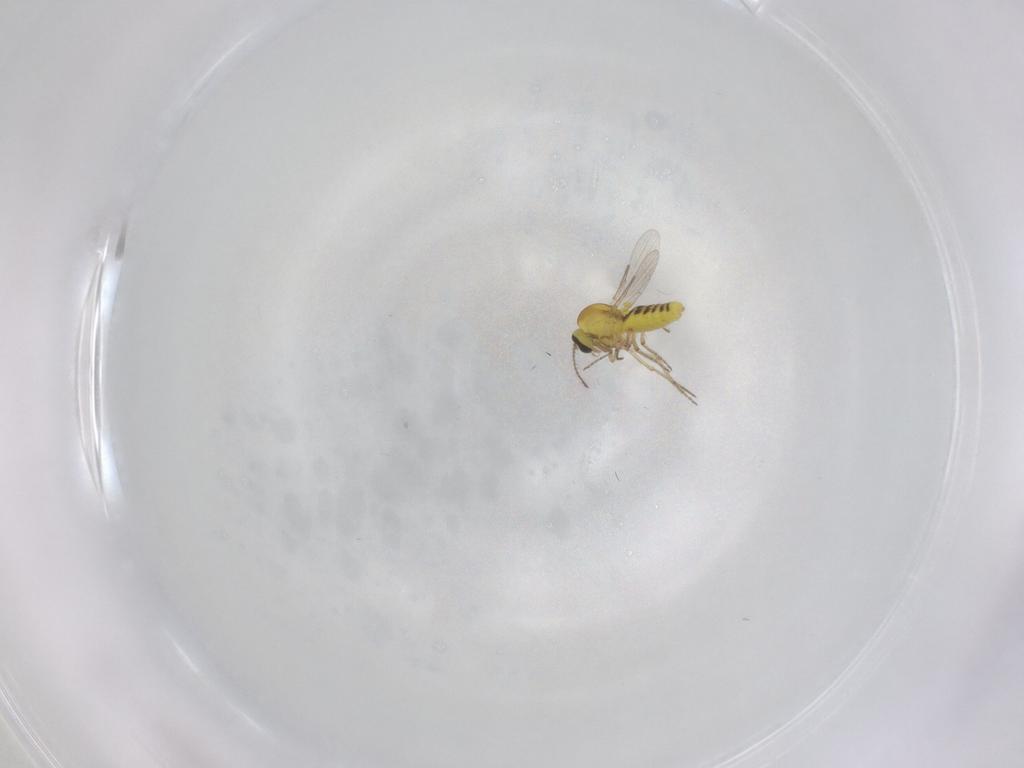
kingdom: Animalia
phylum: Arthropoda
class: Insecta
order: Diptera
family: Ceratopogonidae
